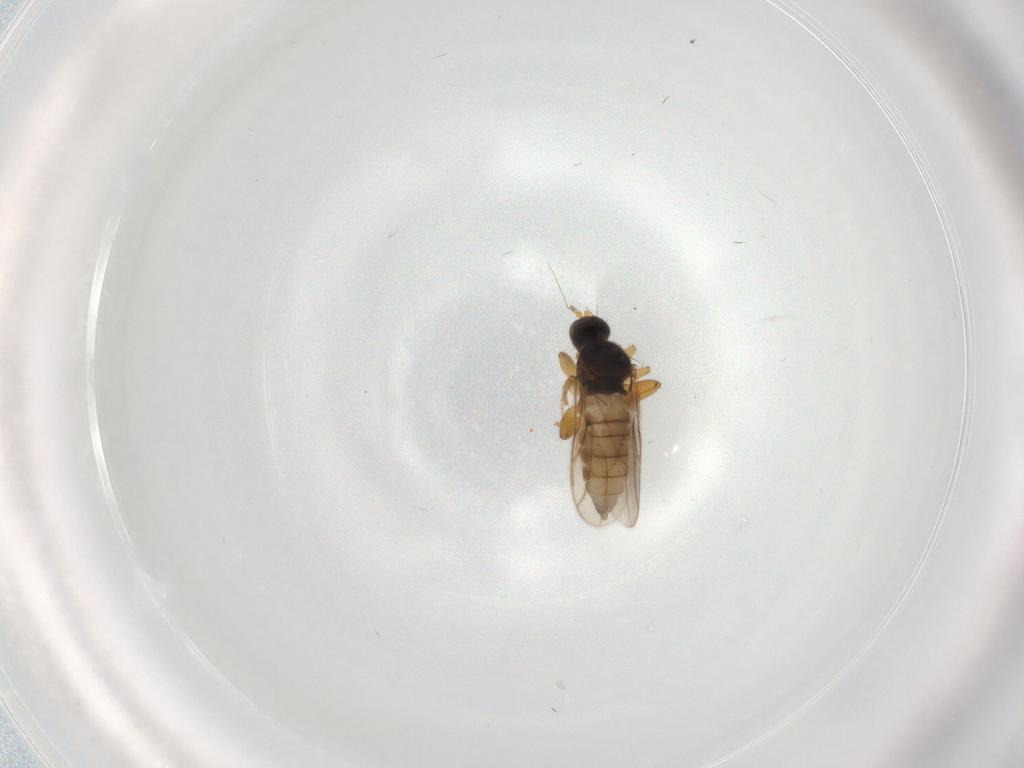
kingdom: Animalia
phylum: Arthropoda
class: Insecta
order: Diptera
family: Hybotidae
